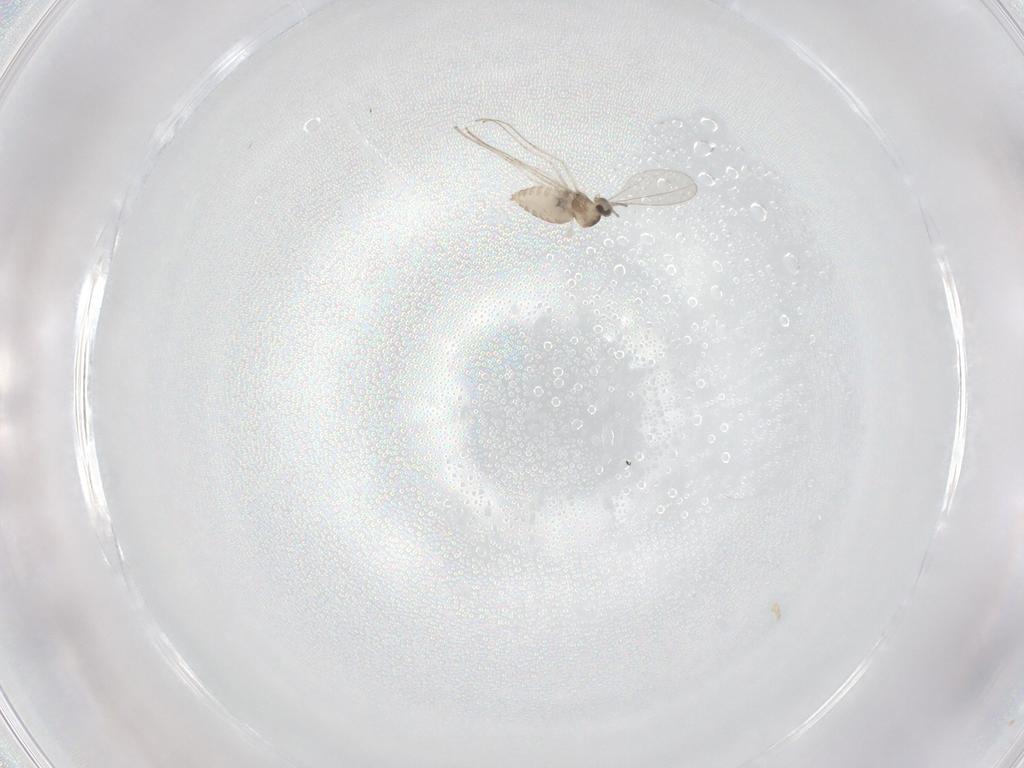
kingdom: Animalia
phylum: Arthropoda
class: Insecta
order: Diptera
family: Cecidomyiidae
